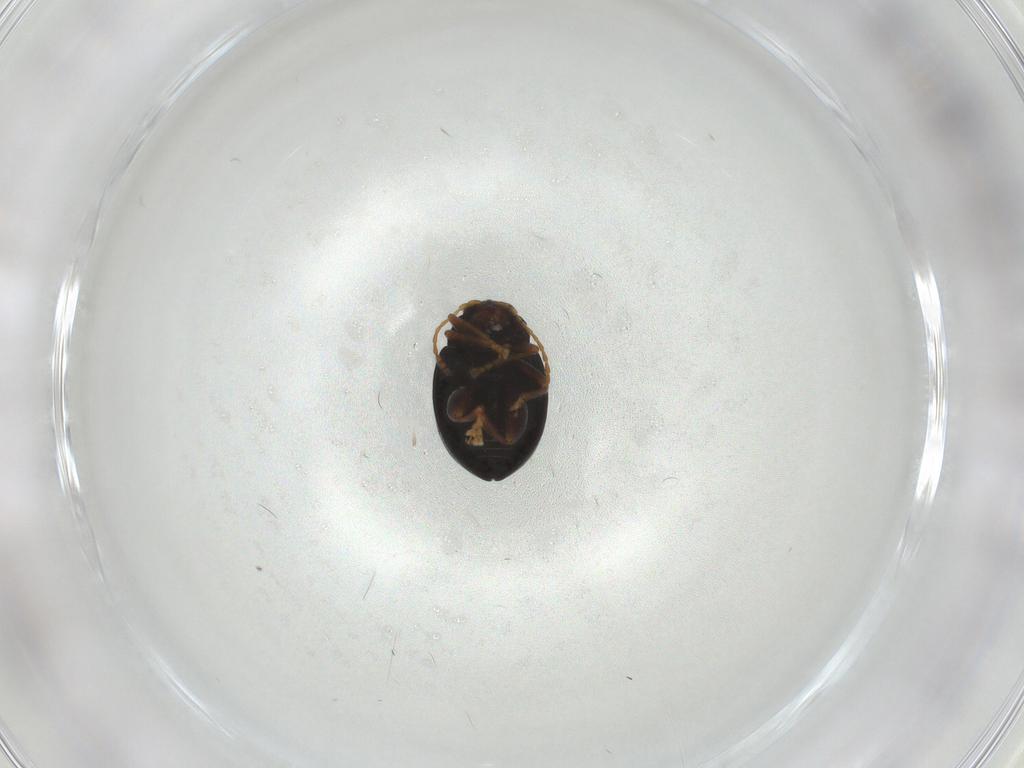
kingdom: Animalia
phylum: Arthropoda
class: Insecta
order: Coleoptera
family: Chrysomelidae
